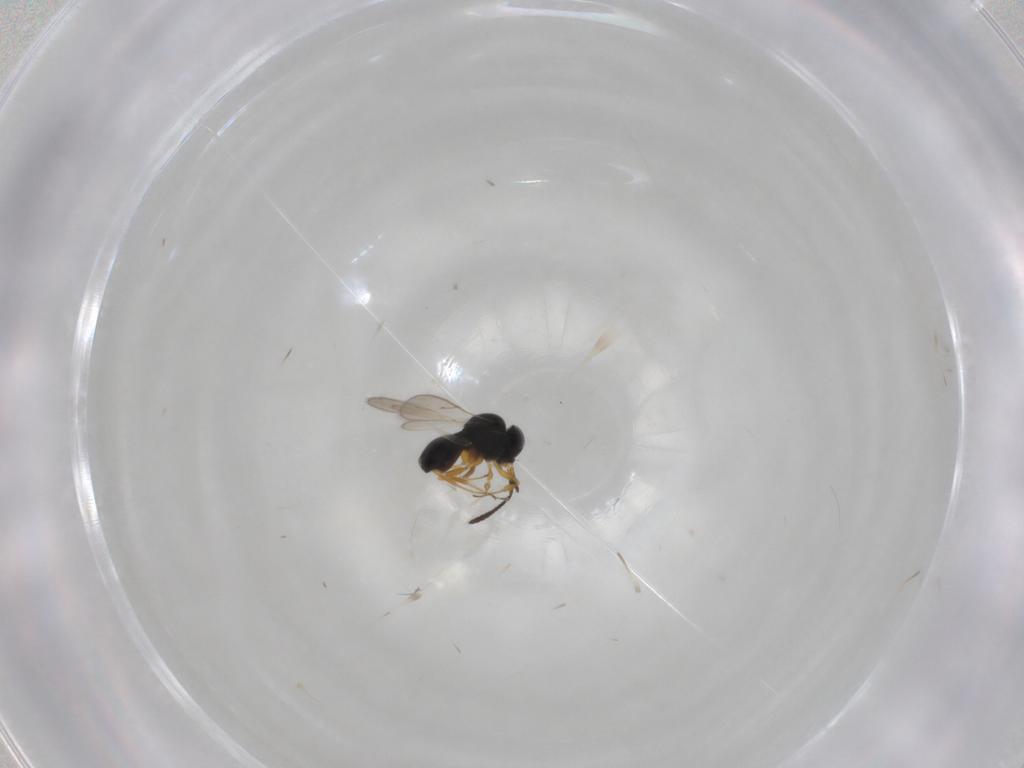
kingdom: Animalia
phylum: Arthropoda
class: Insecta
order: Hymenoptera
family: Scelionidae
